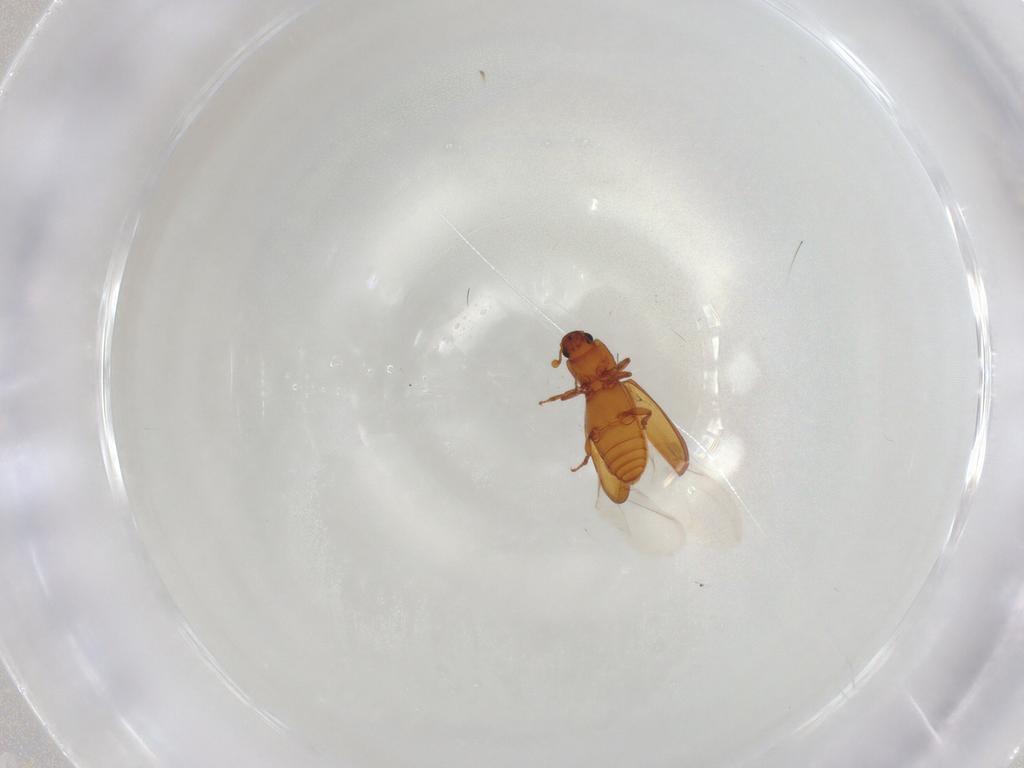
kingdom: Animalia
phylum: Arthropoda
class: Insecta
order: Coleoptera
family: Bothrideridae
